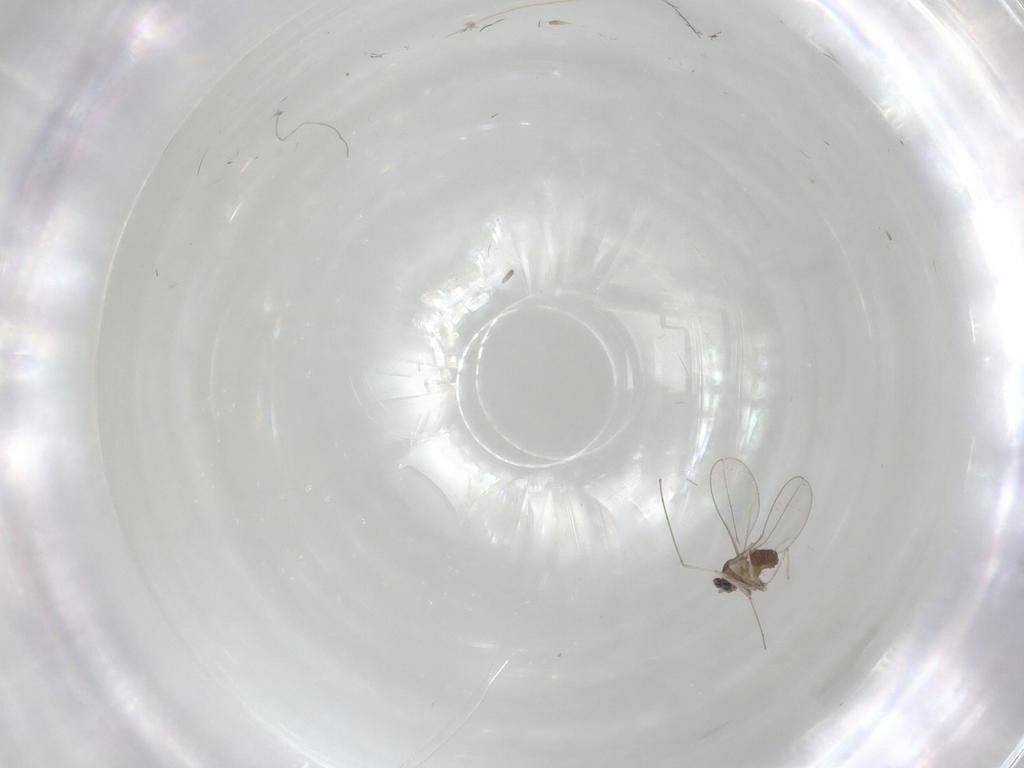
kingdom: Animalia
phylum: Arthropoda
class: Insecta
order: Diptera
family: Cecidomyiidae
